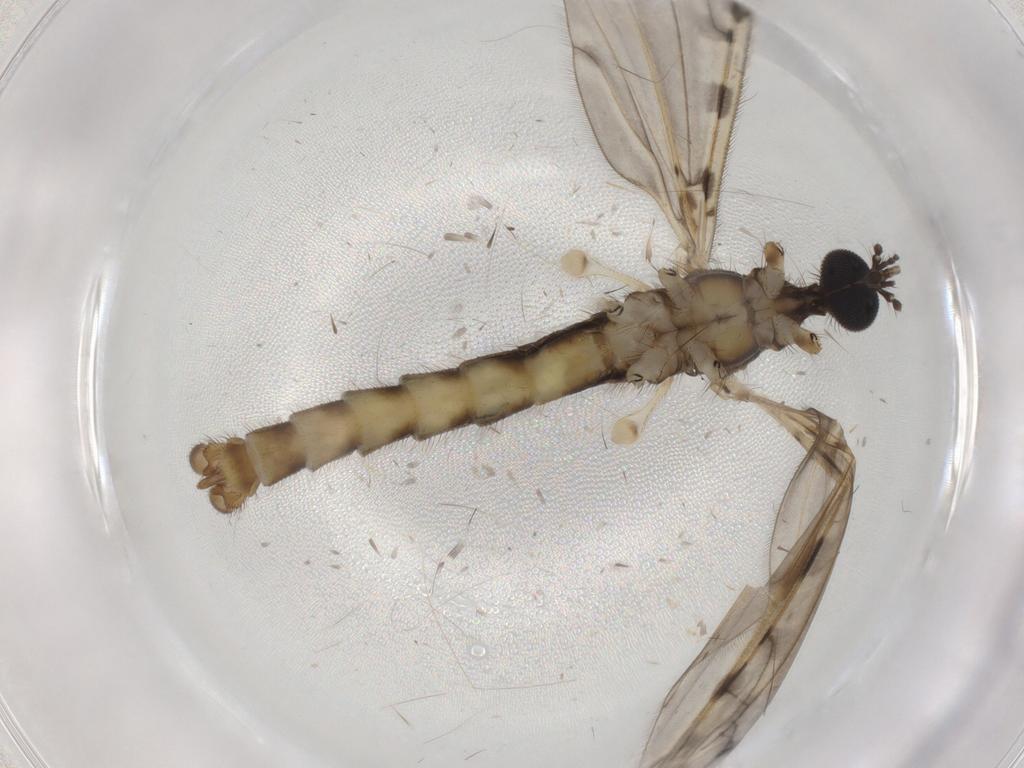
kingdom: Animalia
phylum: Arthropoda
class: Insecta
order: Diptera
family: Limoniidae
